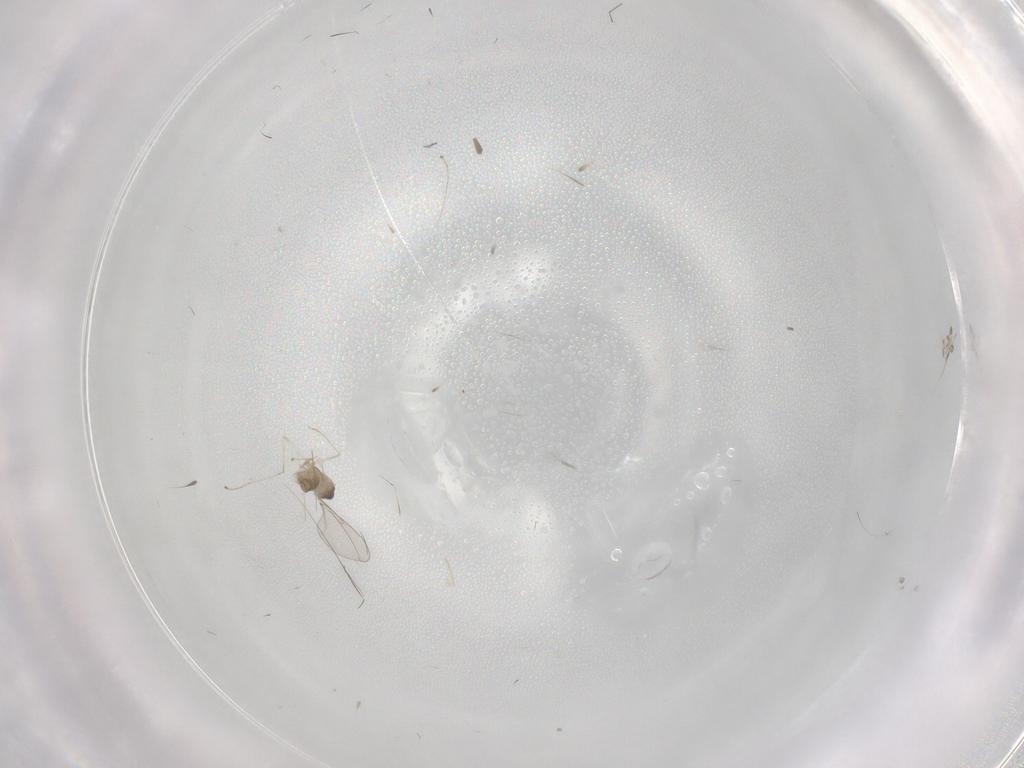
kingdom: Animalia
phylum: Arthropoda
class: Insecta
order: Diptera
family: Cecidomyiidae
